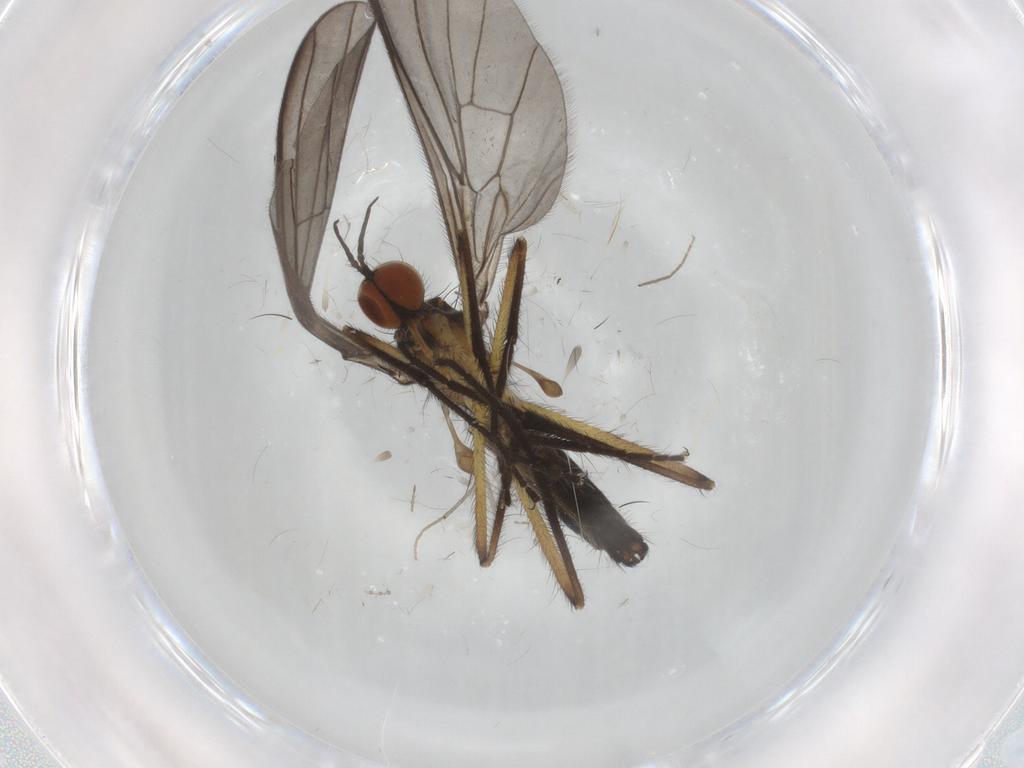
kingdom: Animalia
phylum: Arthropoda
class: Insecta
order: Diptera
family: Empididae
